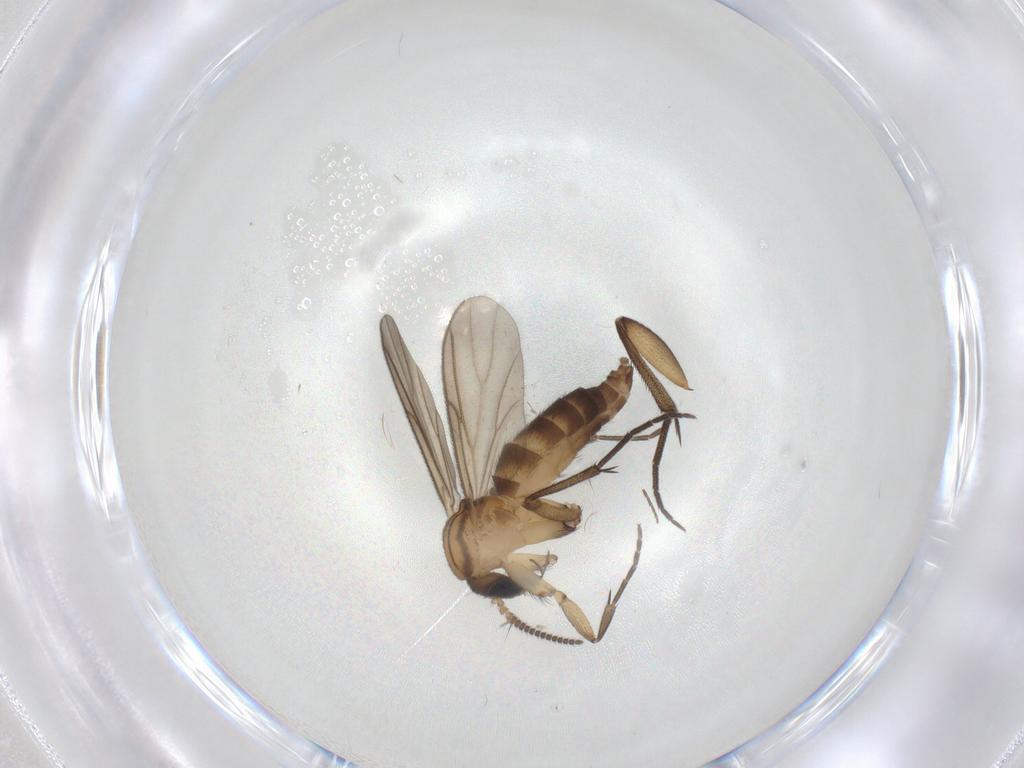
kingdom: Animalia
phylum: Arthropoda
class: Insecta
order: Diptera
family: Mycetophilidae
